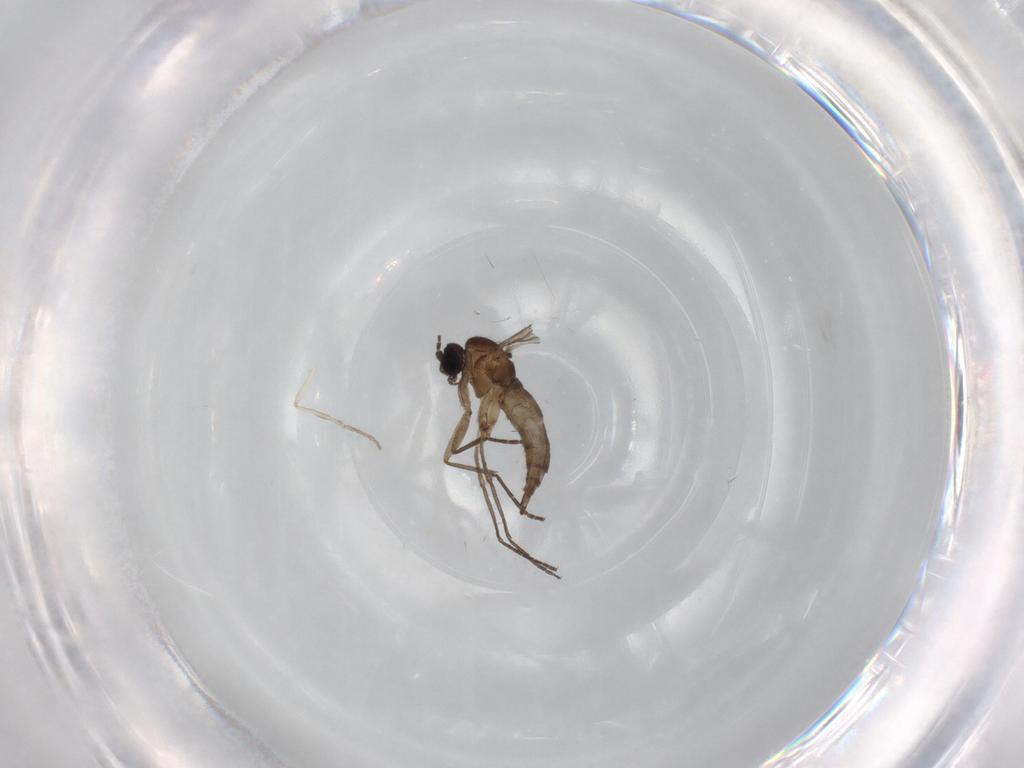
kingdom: Animalia
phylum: Arthropoda
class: Insecta
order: Diptera
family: Sciaridae
